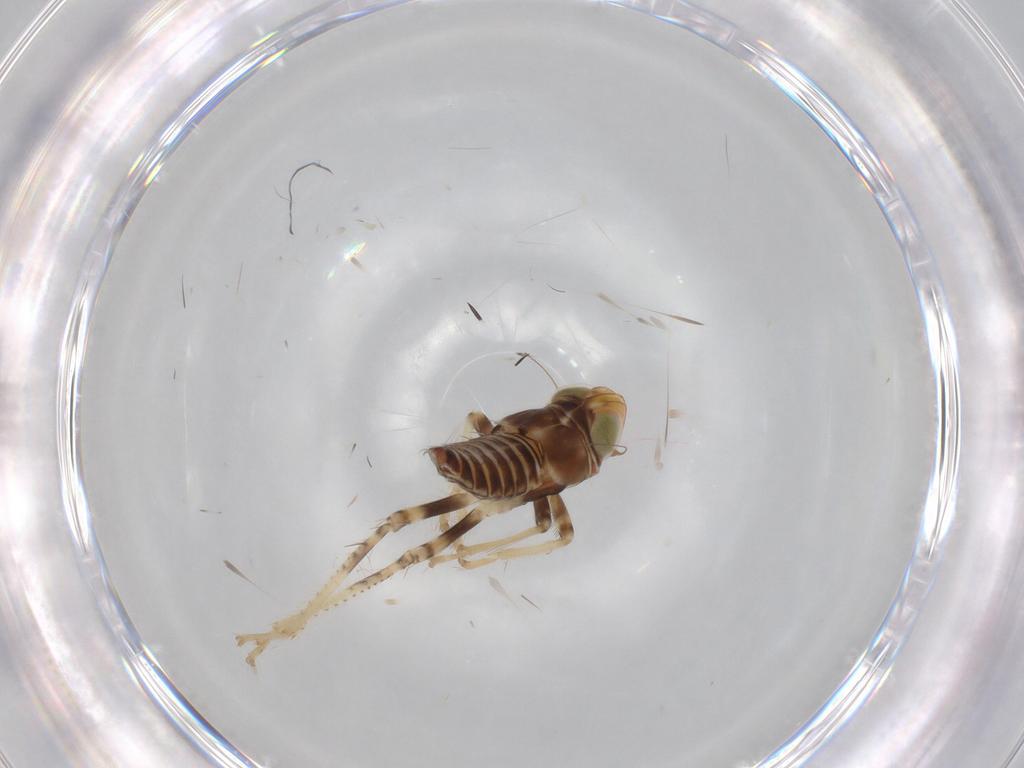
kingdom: Animalia
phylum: Arthropoda
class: Insecta
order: Hemiptera
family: Cicadellidae
